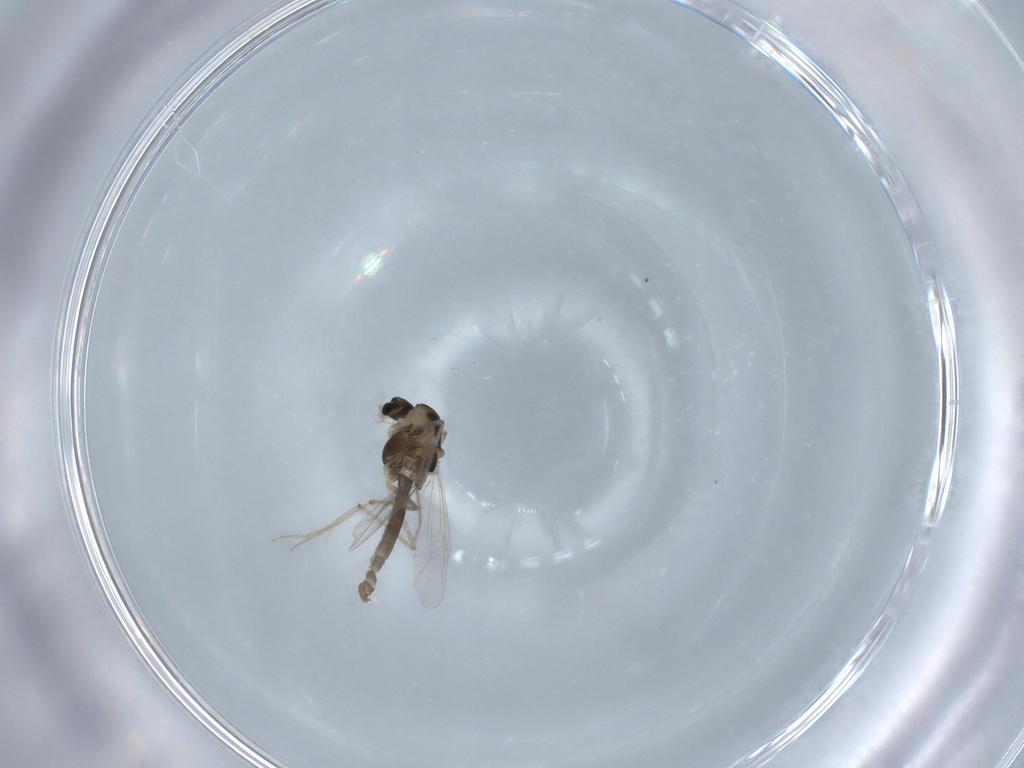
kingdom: Animalia
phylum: Arthropoda
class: Insecta
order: Diptera
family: Chironomidae
